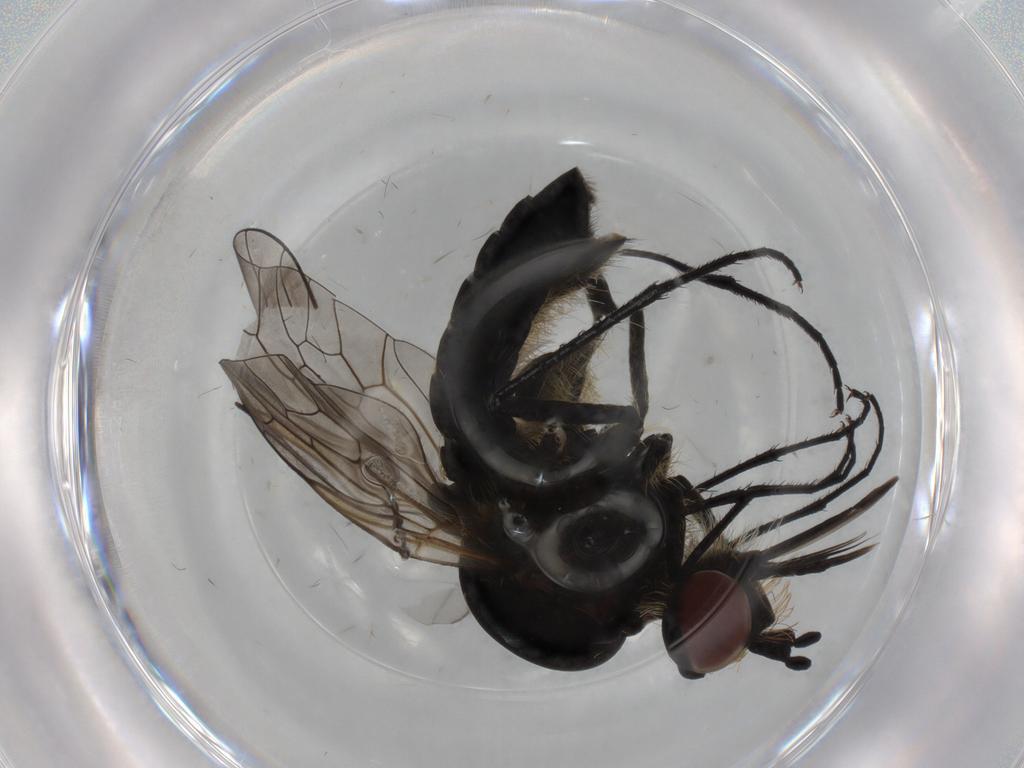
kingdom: Animalia
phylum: Arthropoda
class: Insecta
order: Diptera
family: Bombyliidae
